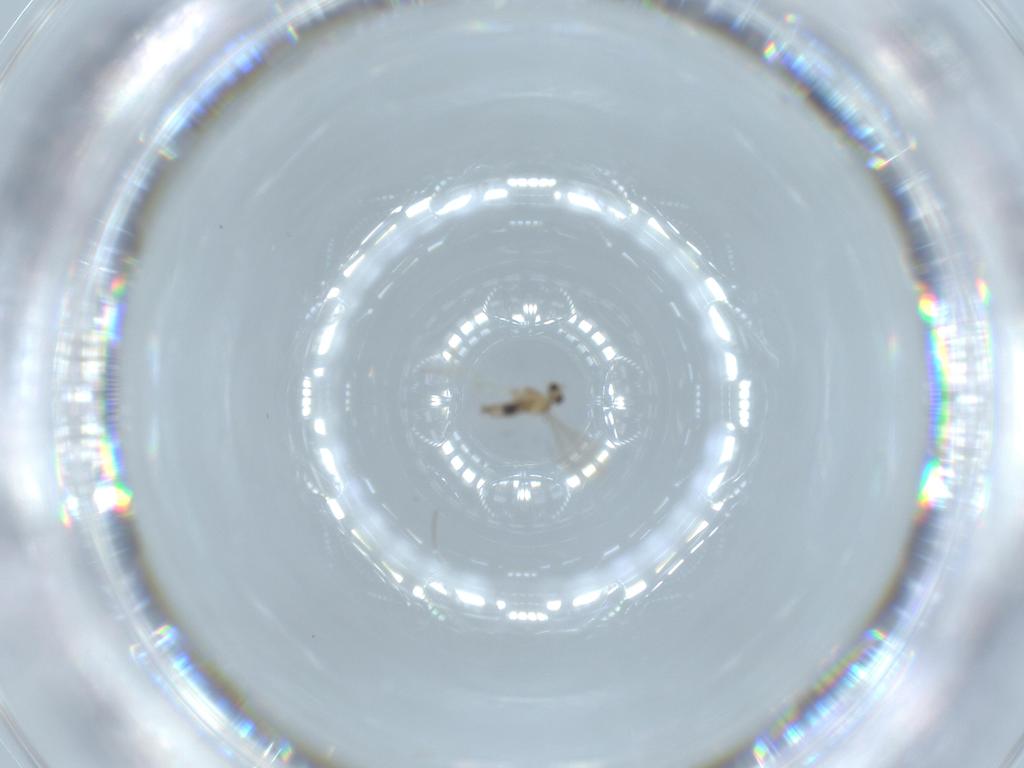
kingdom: Animalia
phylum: Arthropoda
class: Insecta
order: Diptera
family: Cecidomyiidae
